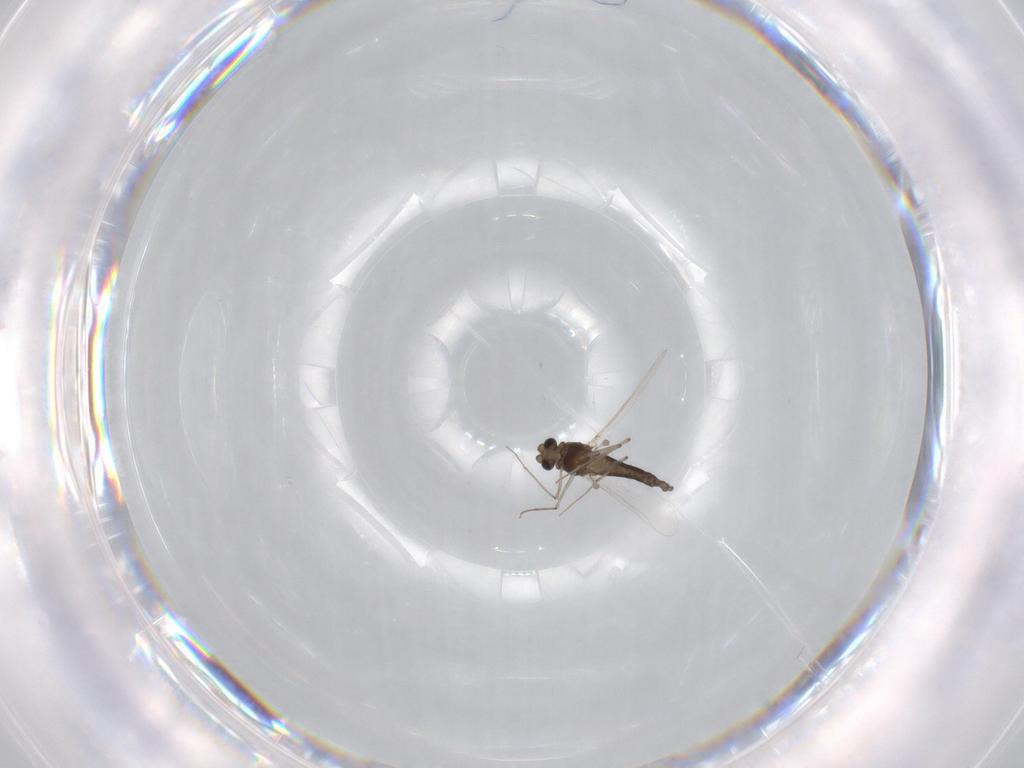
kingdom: Animalia
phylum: Arthropoda
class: Insecta
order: Diptera
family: Chironomidae
